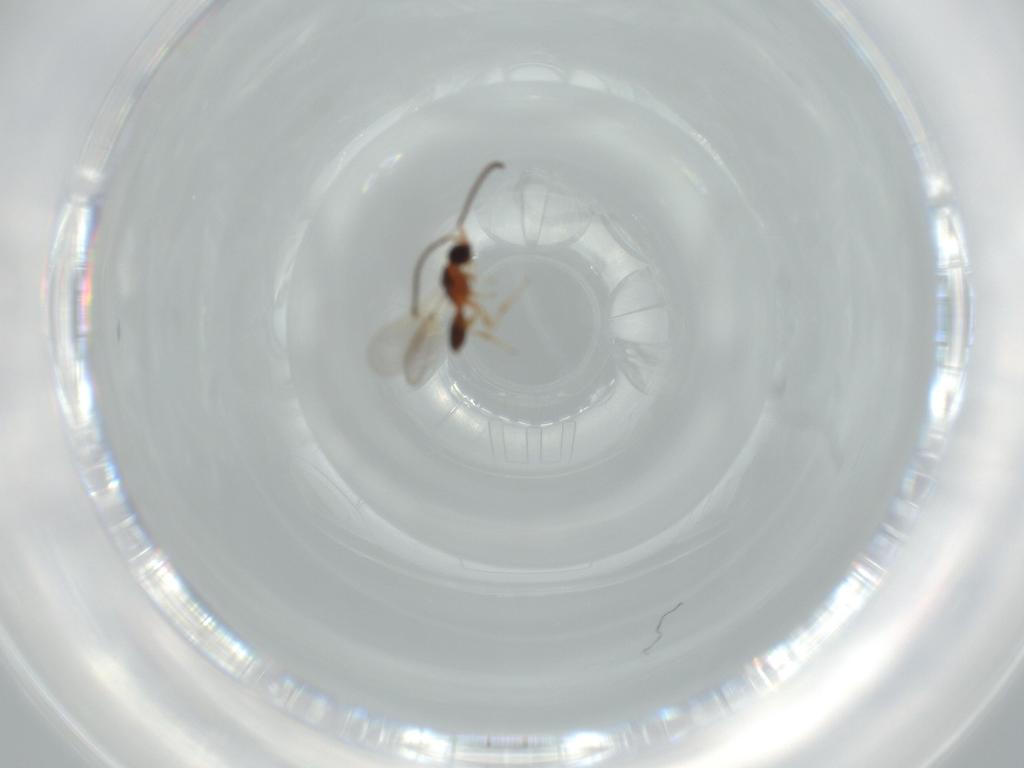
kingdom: Animalia
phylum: Arthropoda
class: Insecta
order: Hymenoptera
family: Diapriidae
